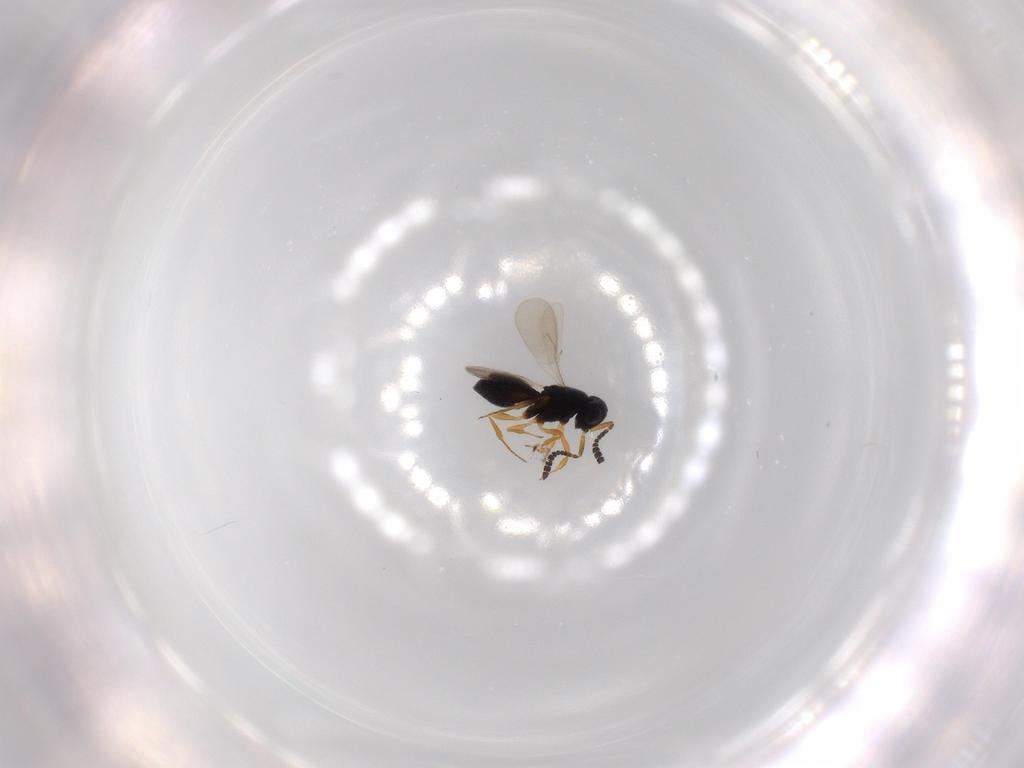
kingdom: Animalia
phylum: Arthropoda
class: Insecta
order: Hymenoptera
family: Scelionidae
